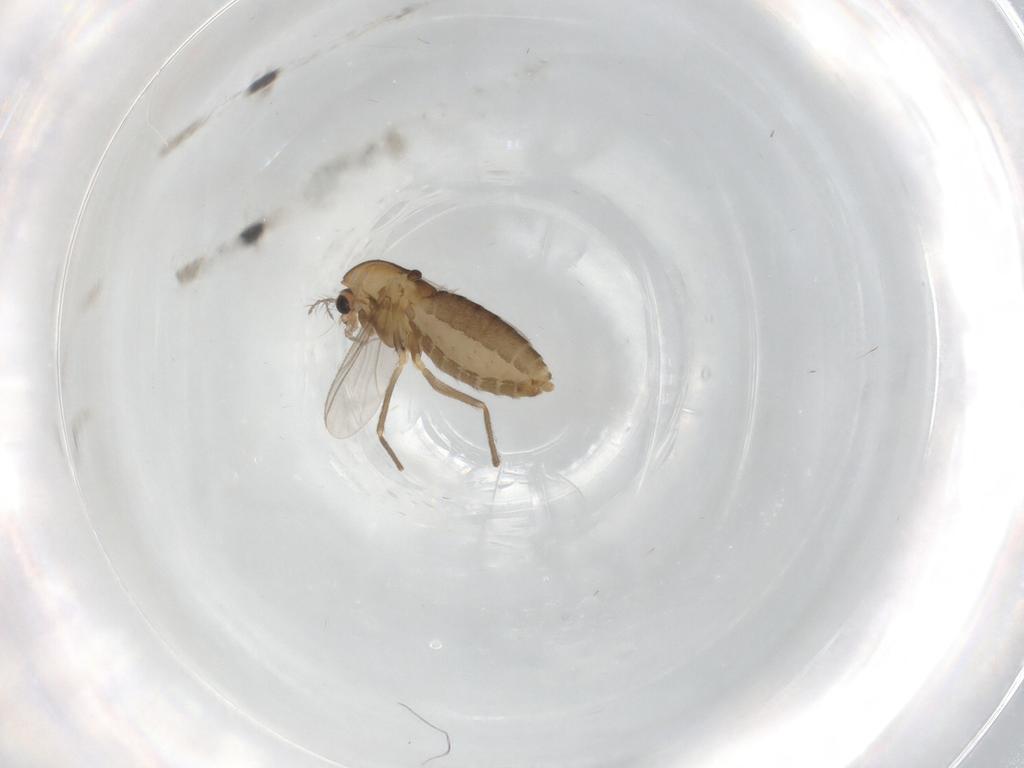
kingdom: Animalia
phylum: Arthropoda
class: Insecta
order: Diptera
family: Chironomidae
